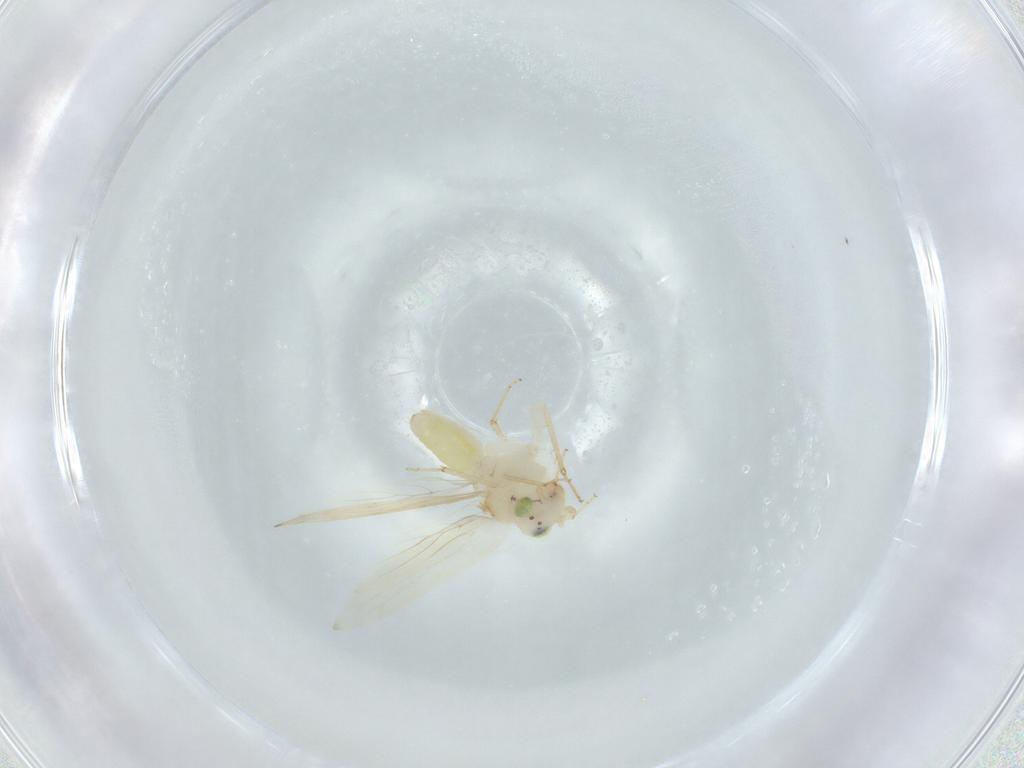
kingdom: Animalia
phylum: Arthropoda
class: Insecta
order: Psocodea
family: Lepidopsocidae
